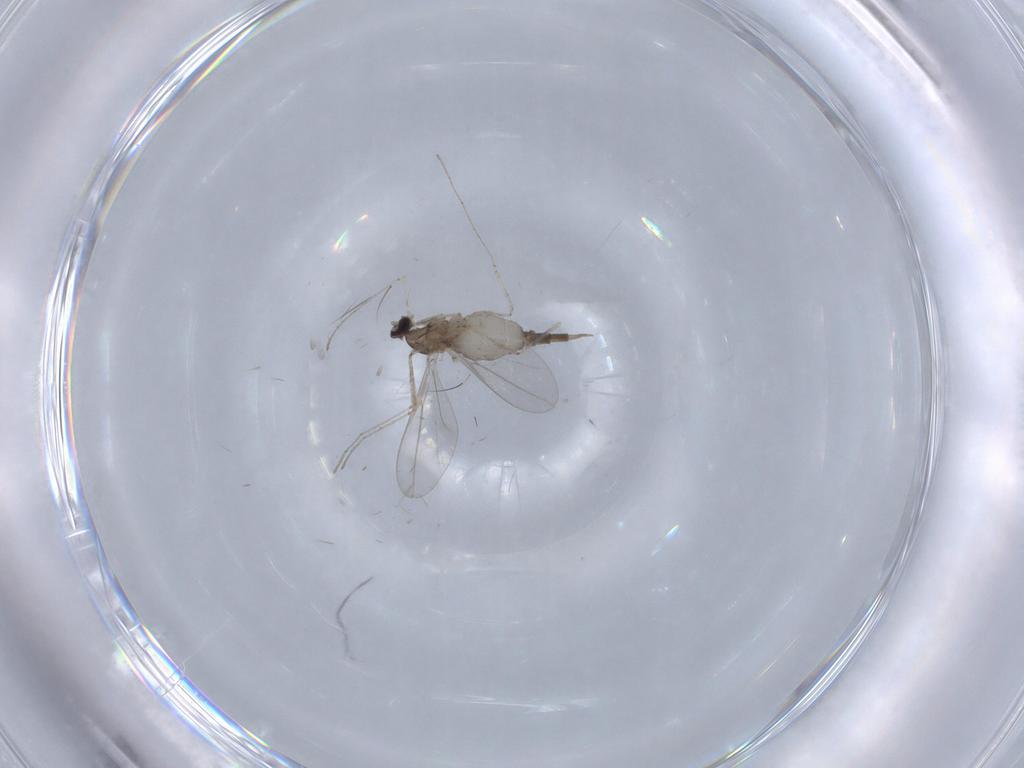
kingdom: Animalia
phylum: Arthropoda
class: Insecta
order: Diptera
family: Cecidomyiidae
